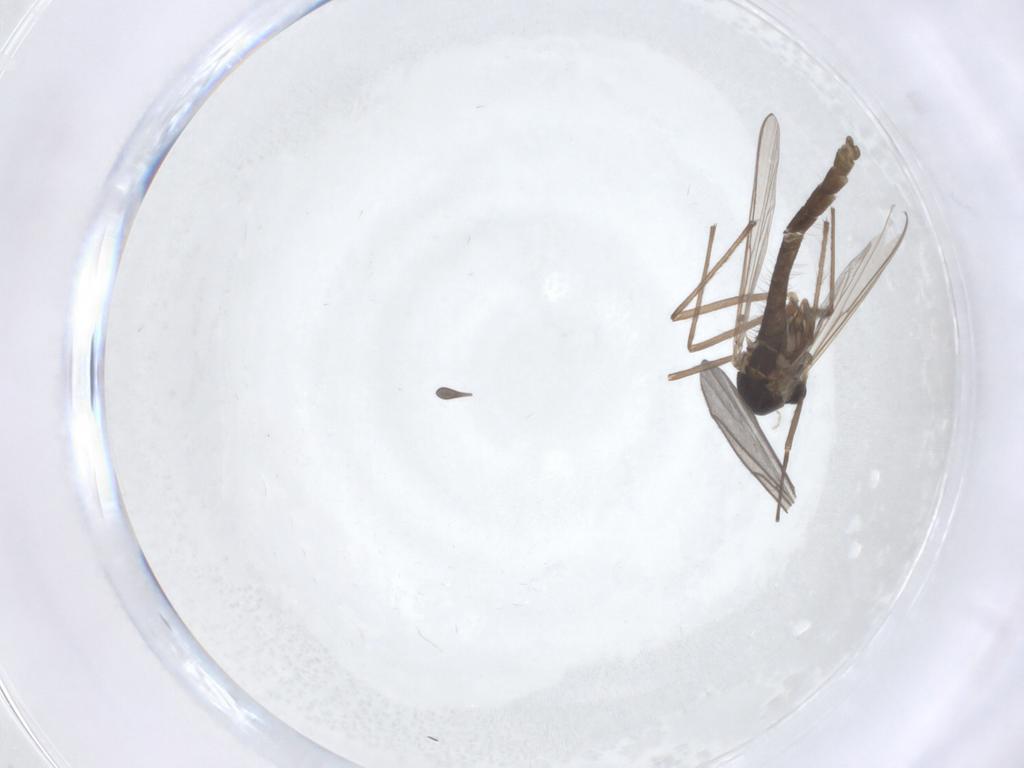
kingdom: Animalia
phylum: Arthropoda
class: Insecta
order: Diptera
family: Chironomidae
